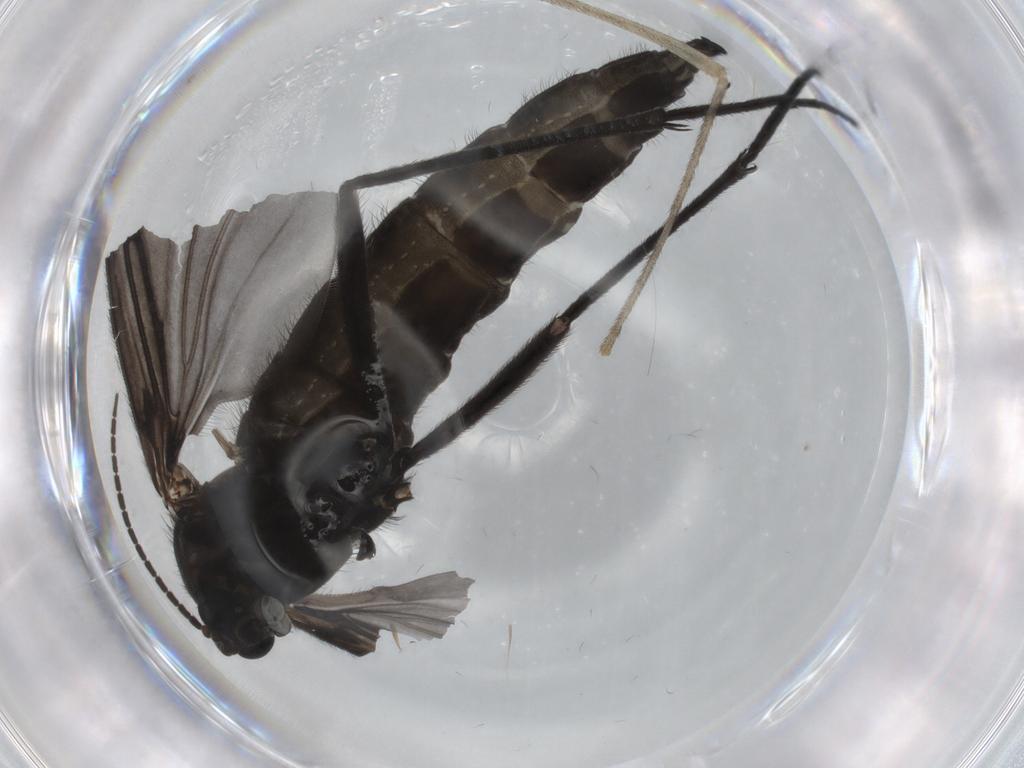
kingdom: Animalia
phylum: Arthropoda
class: Insecta
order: Diptera
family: Sciaridae
